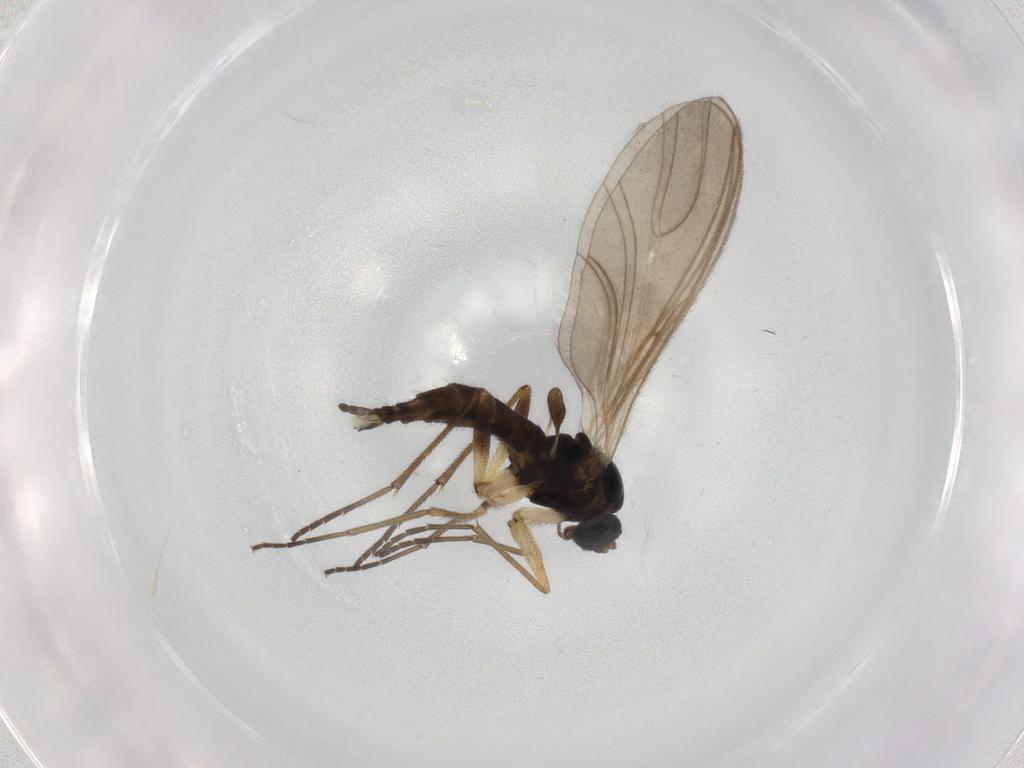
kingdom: Animalia
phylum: Arthropoda
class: Insecta
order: Diptera
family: Sciaridae
